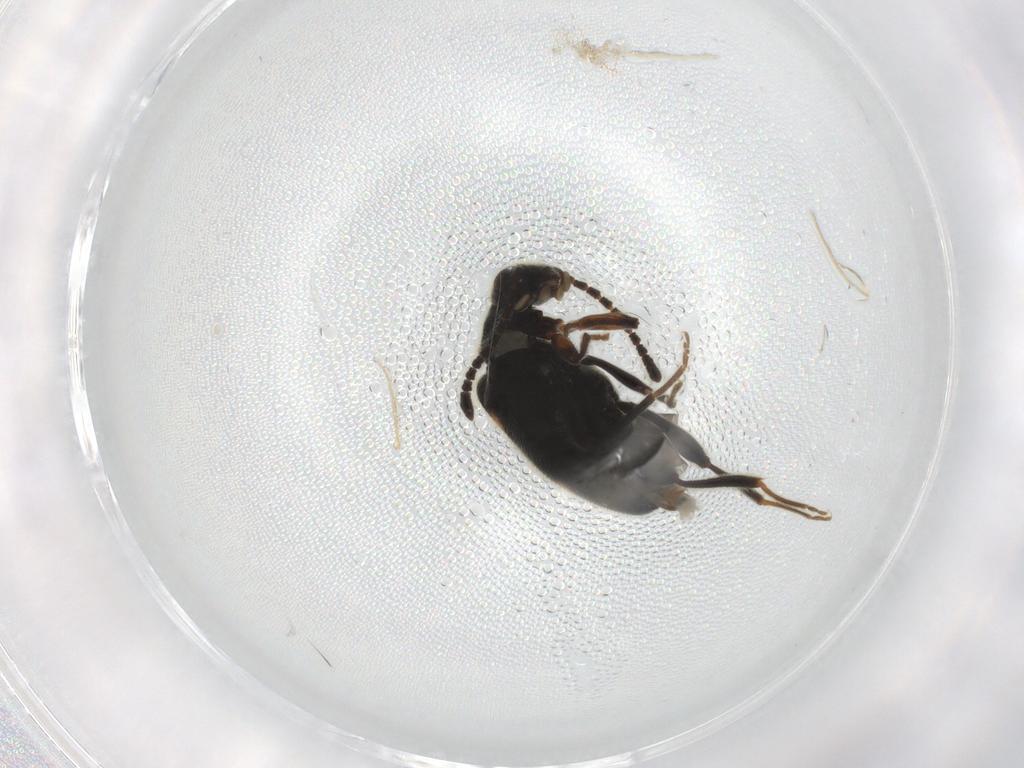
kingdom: Animalia
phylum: Arthropoda
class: Insecta
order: Coleoptera
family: Aderidae
